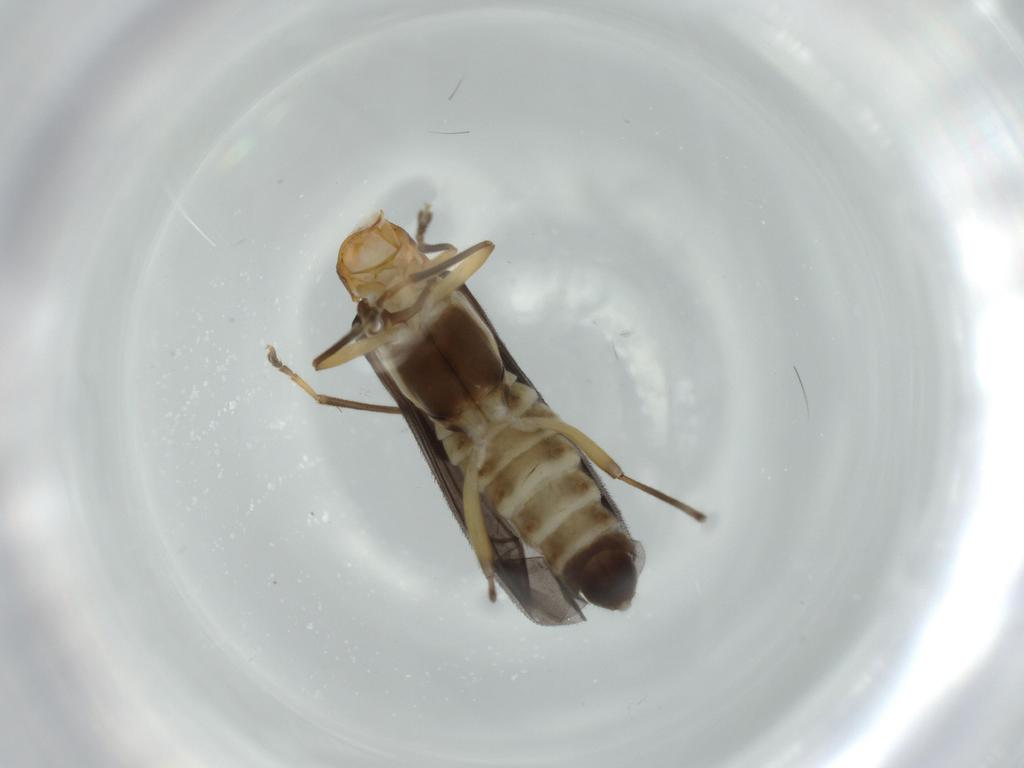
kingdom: Animalia
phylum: Arthropoda
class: Insecta
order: Coleoptera
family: Cantharidae
